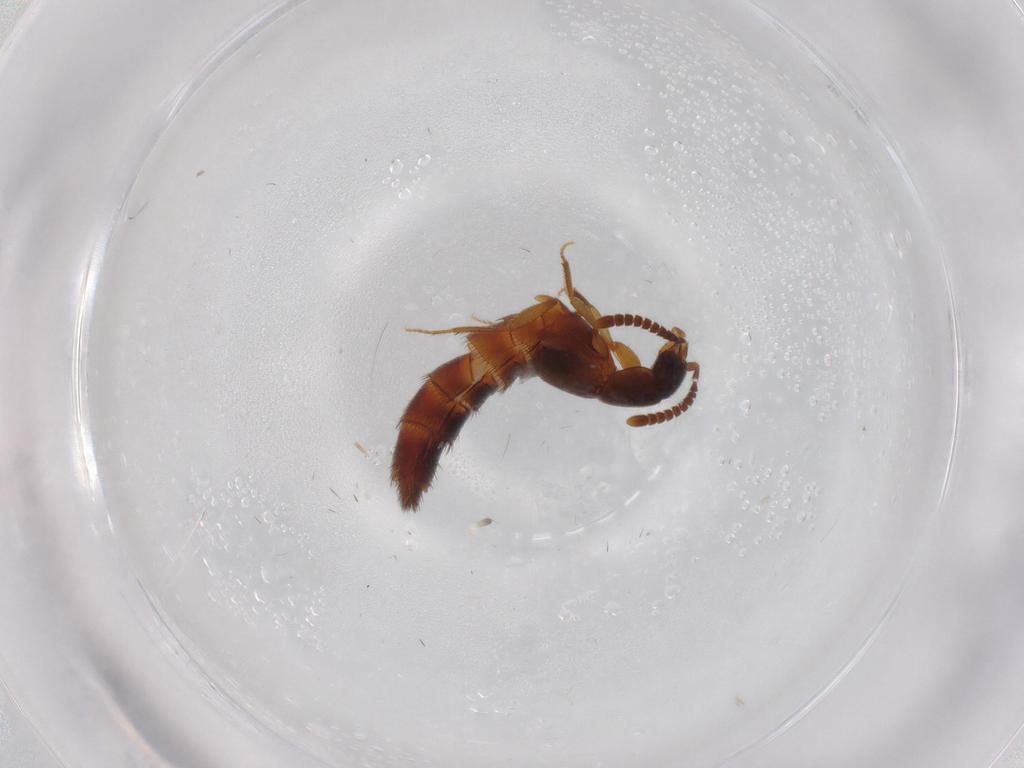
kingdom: Animalia
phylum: Arthropoda
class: Insecta
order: Coleoptera
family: Staphylinidae
